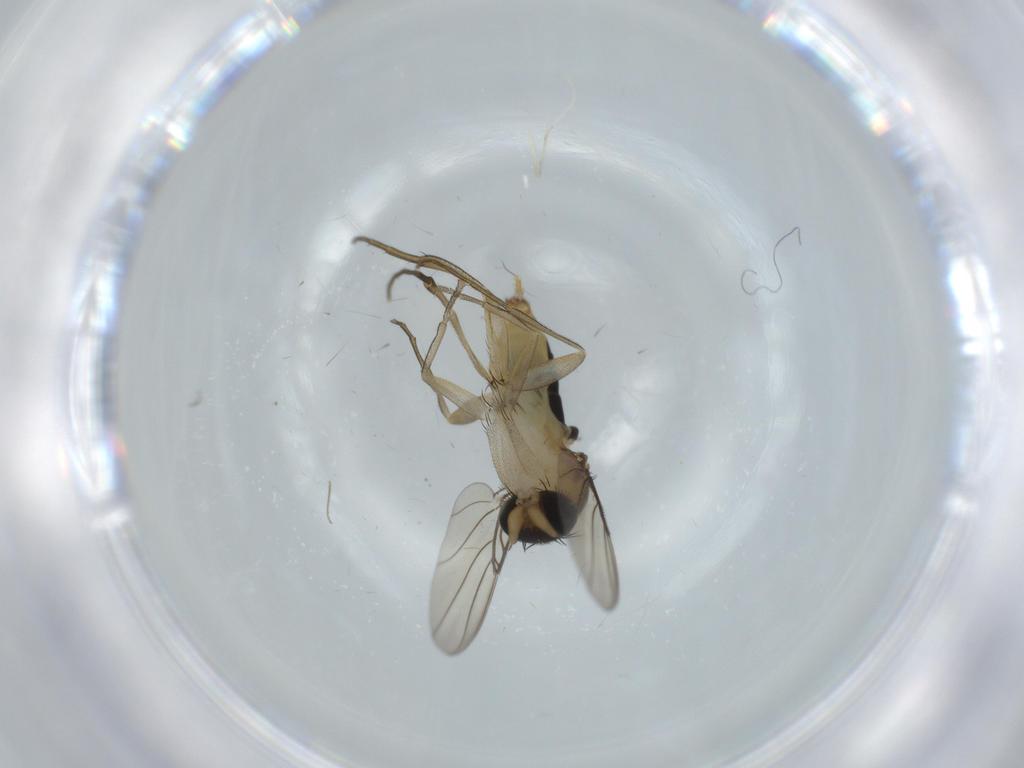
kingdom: Animalia
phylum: Arthropoda
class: Insecta
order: Diptera
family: Phoridae
